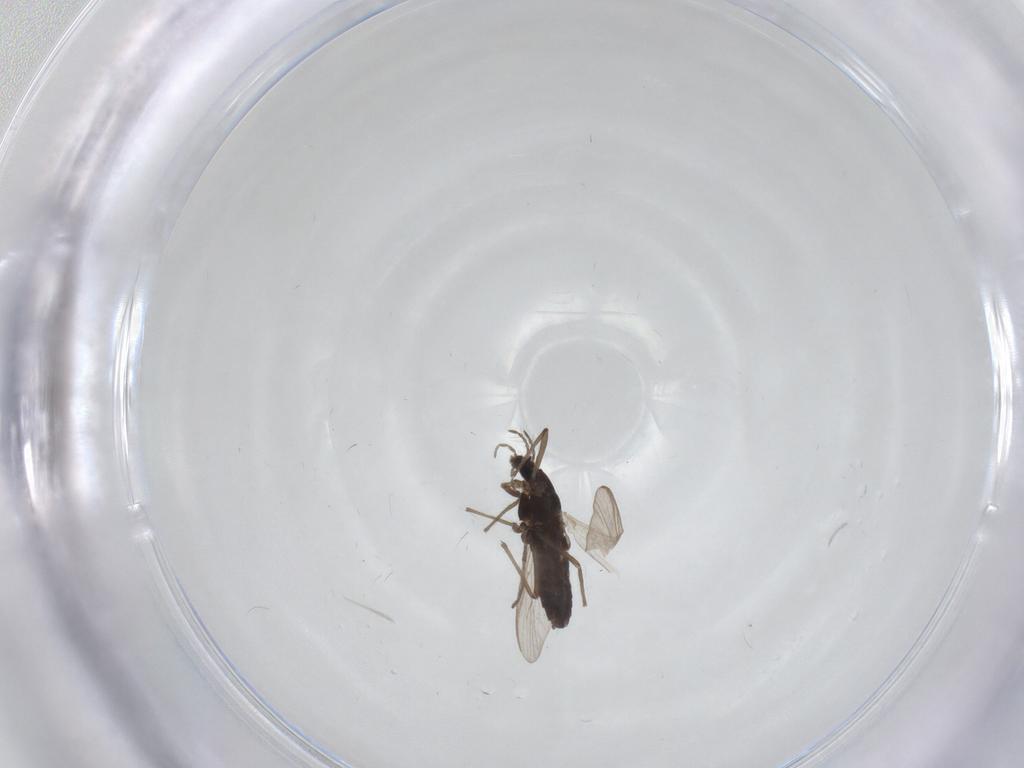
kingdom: Animalia
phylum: Arthropoda
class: Insecta
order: Diptera
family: Chironomidae
